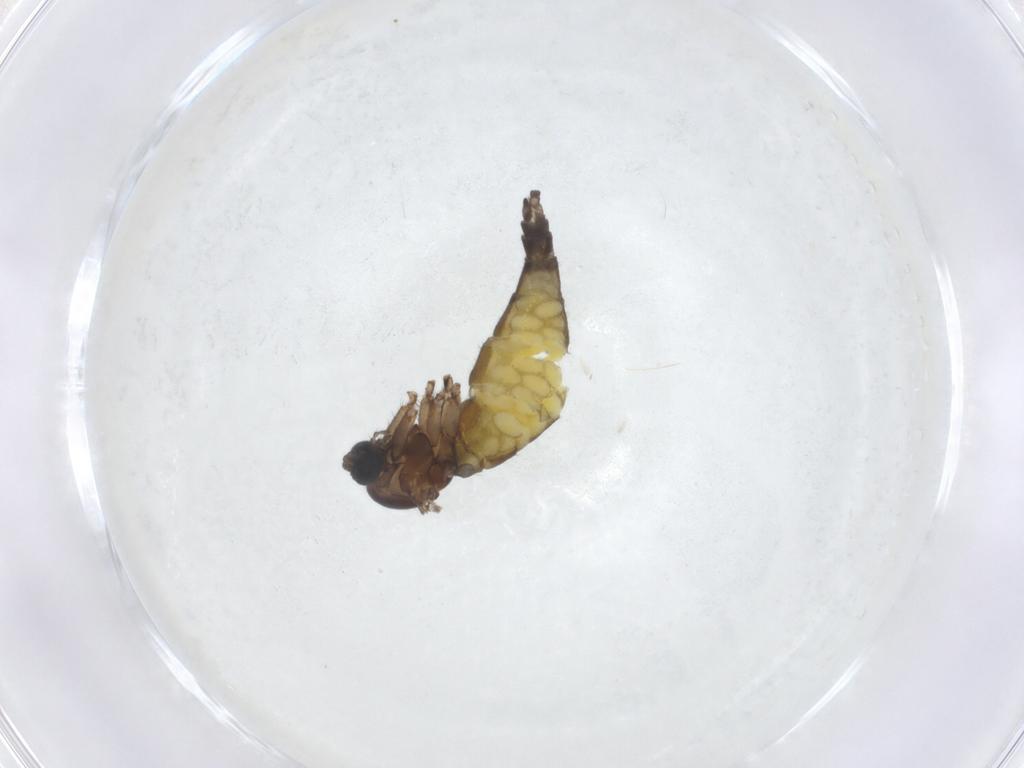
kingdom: Animalia
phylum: Arthropoda
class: Insecta
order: Diptera
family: Sciaridae
